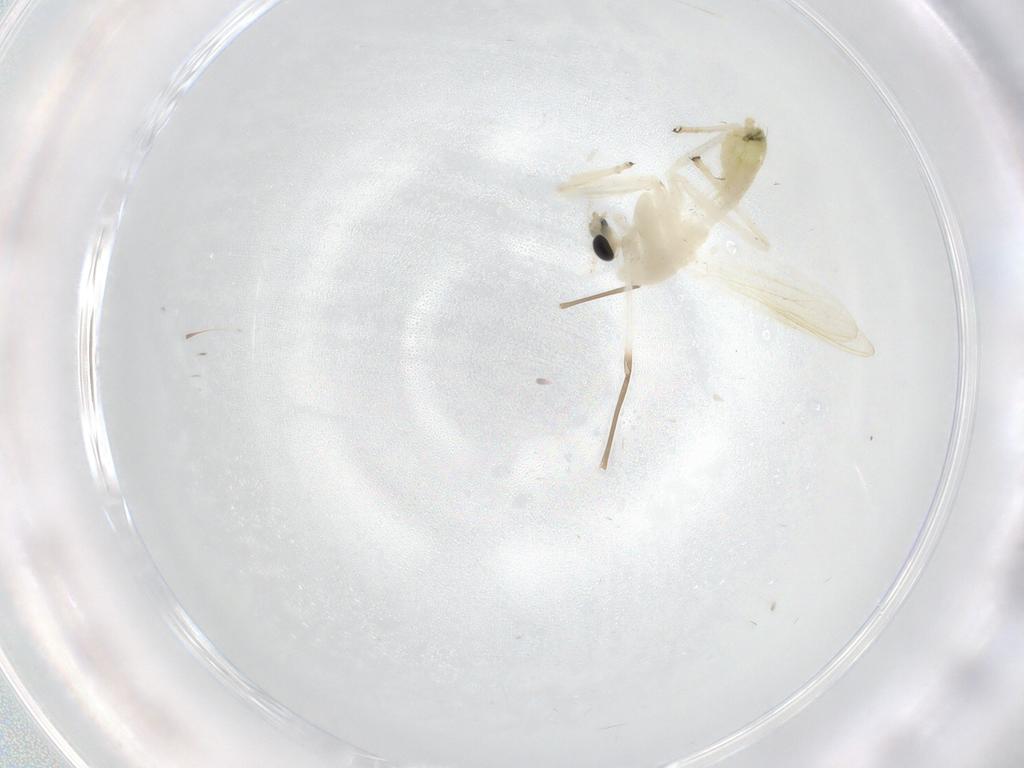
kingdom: Animalia
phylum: Arthropoda
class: Insecta
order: Diptera
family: Chironomidae
